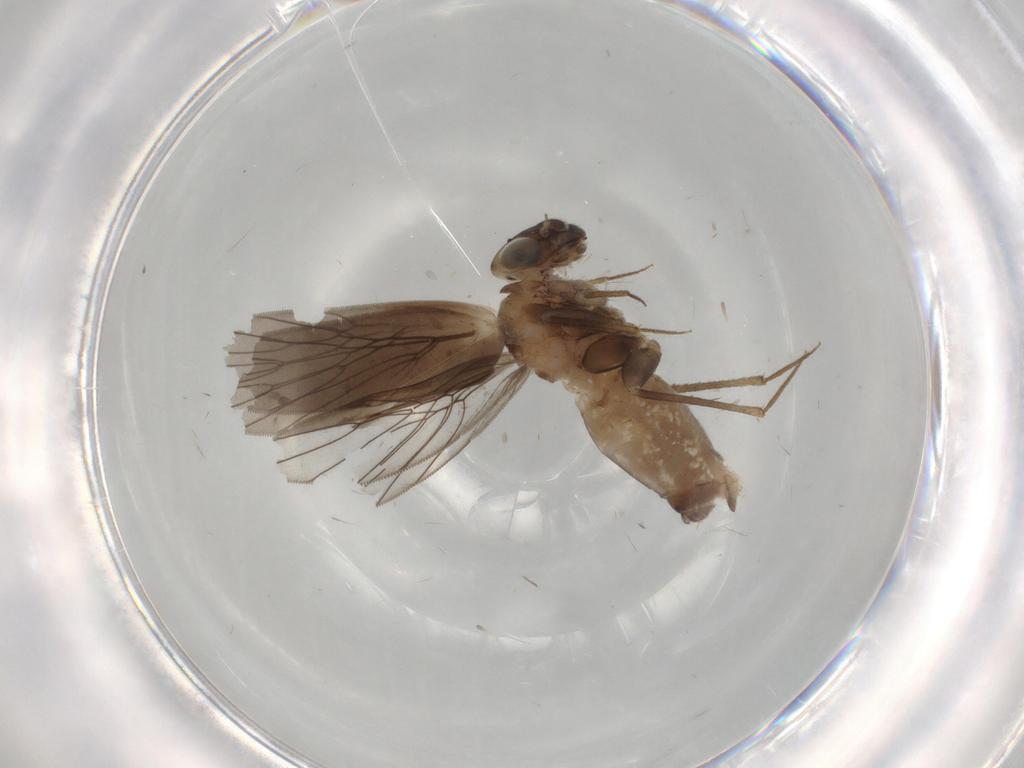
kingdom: Animalia
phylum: Arthropoda
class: Insecta
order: Psocodea
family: Lepidopsocidae
